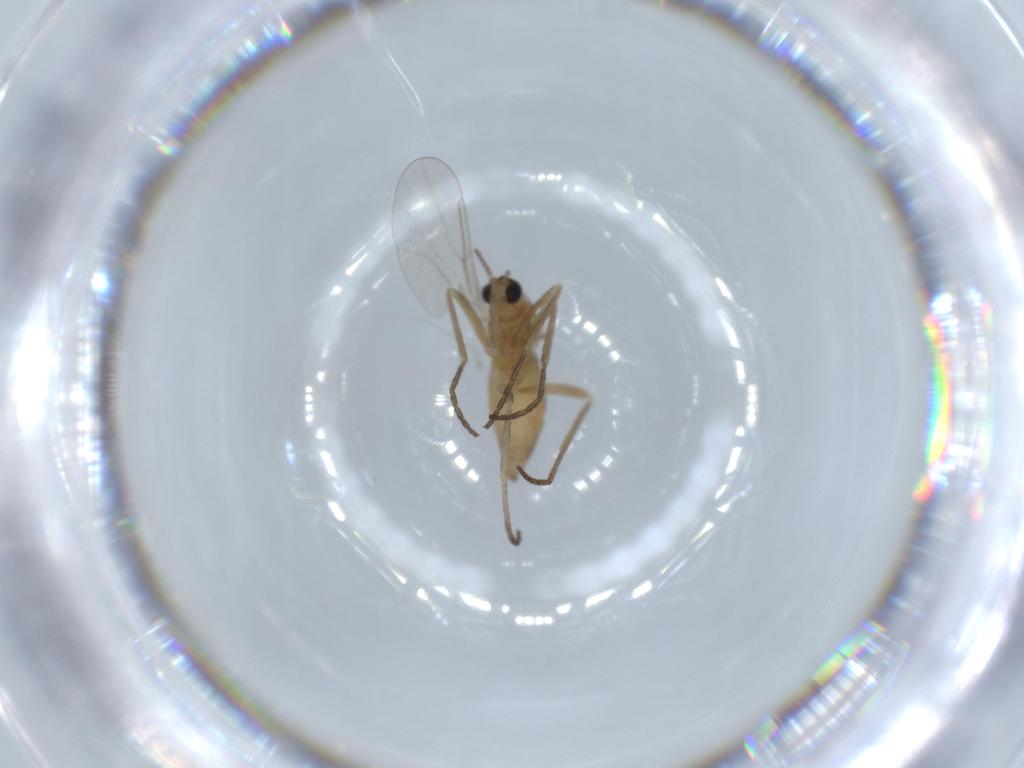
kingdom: Animalia
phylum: Arthropoda
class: Insecta
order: Diptera
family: Cecidomyiidae
